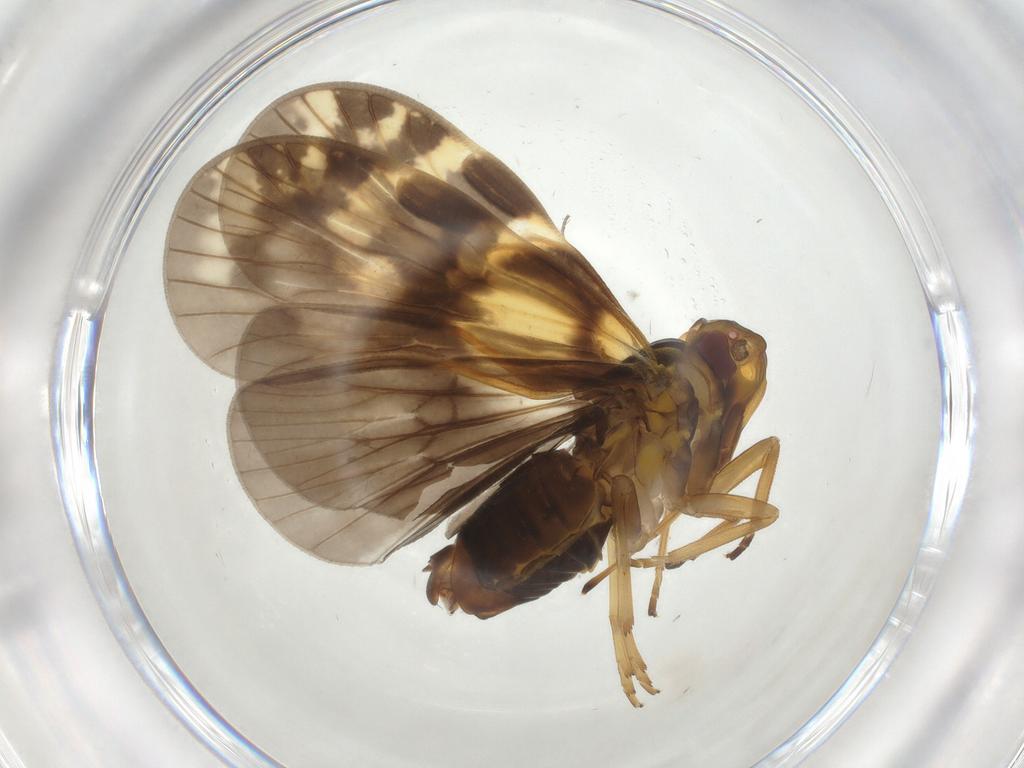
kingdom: Animalia
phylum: Arthropoda
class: Insecta
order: Hemiptera
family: Cixiidae
